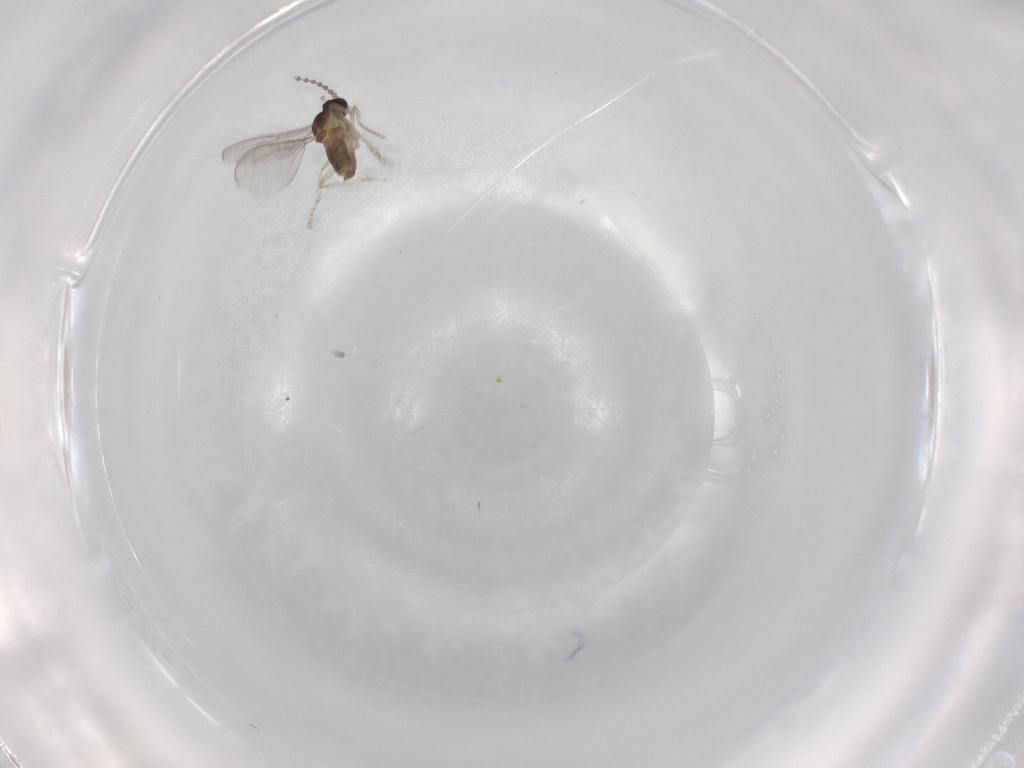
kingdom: Animalia
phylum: Arthropoda
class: Insecta
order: Diptera
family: Cecidomyiidae
